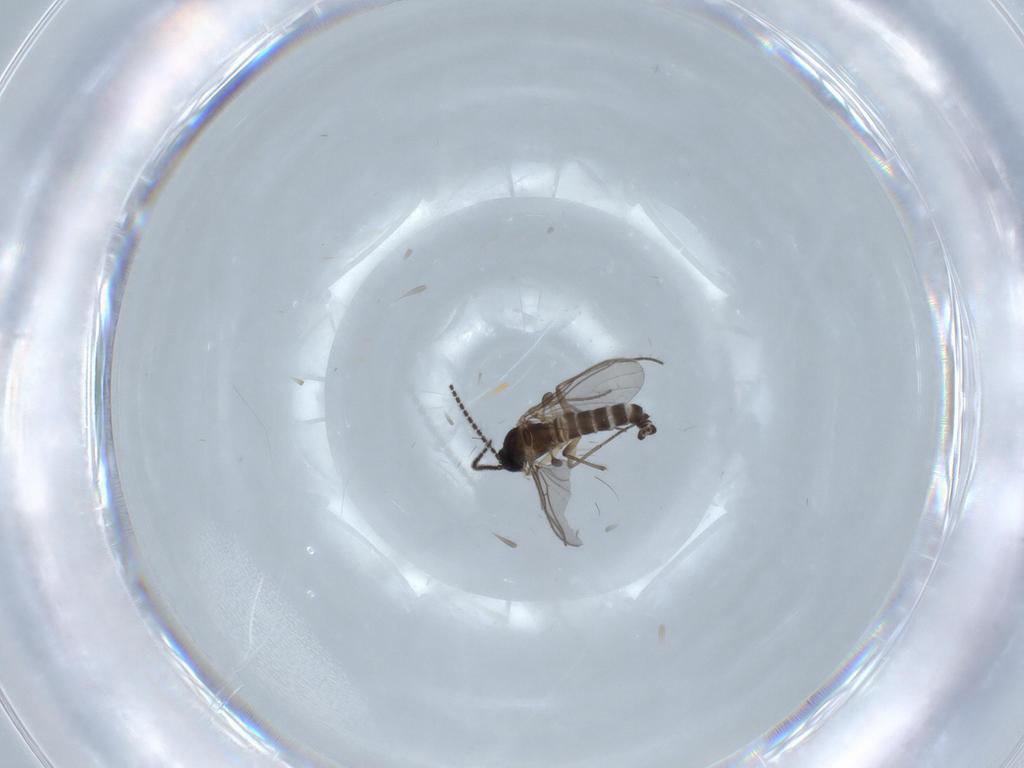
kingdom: Animalia
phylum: Arthropoda
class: Insecta
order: Diptera
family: Sciaridae
